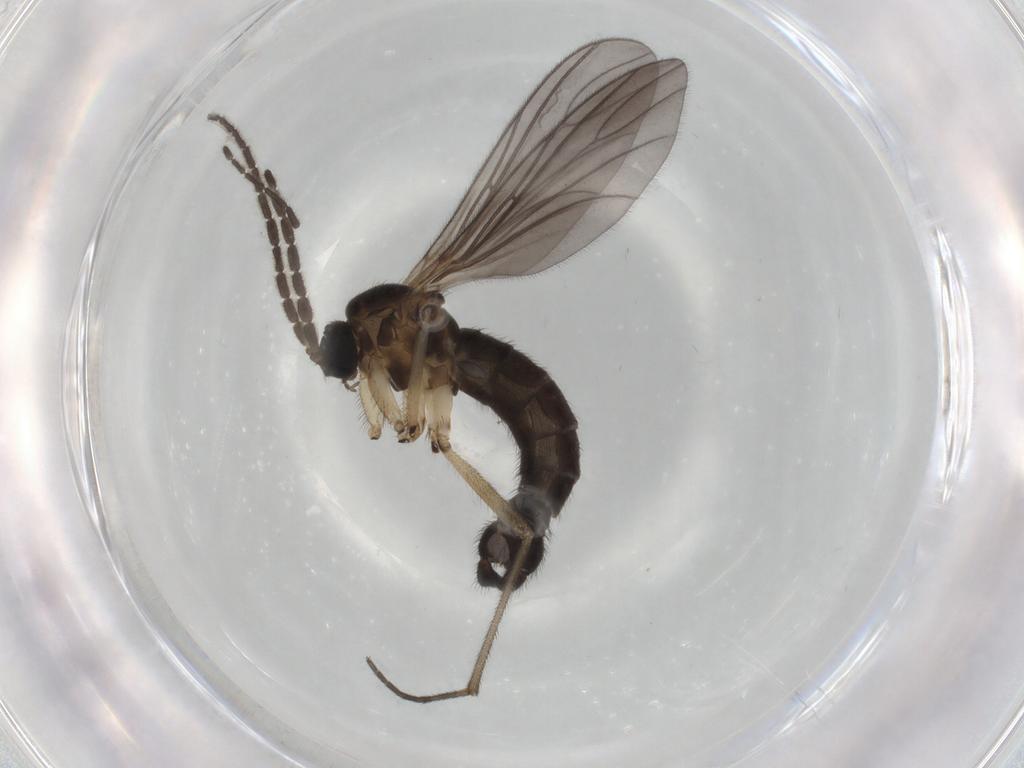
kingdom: Animalia
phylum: Arthropoda
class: Insecta
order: Diptera
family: Sciaridae
